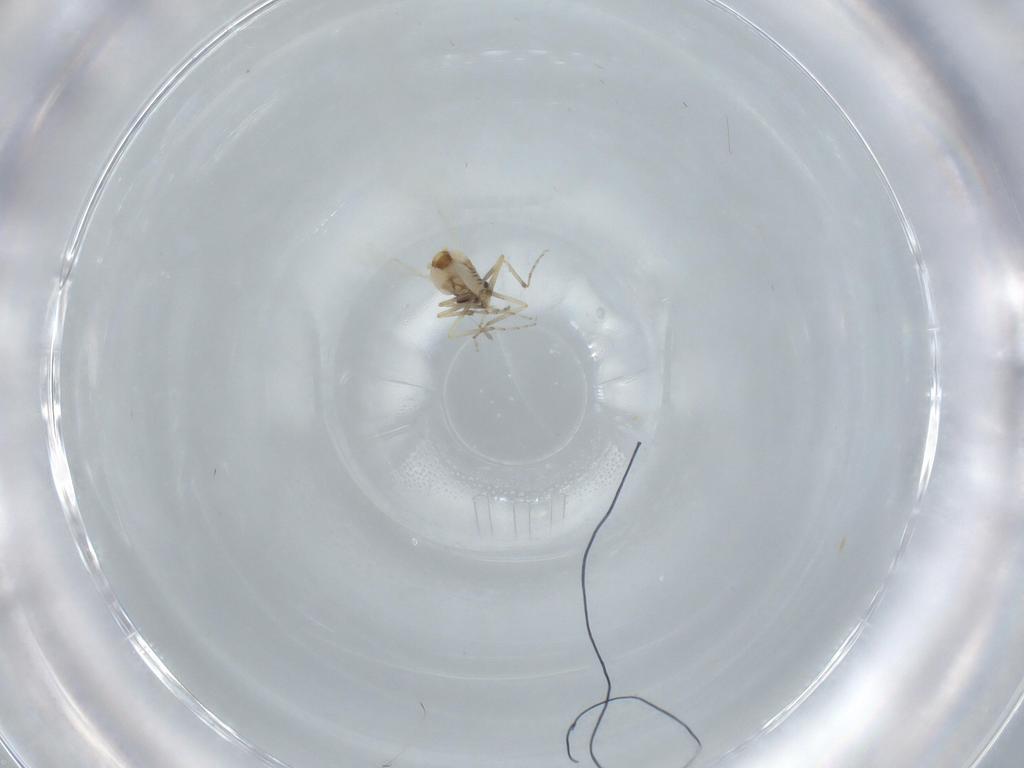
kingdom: Animalia
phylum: Arthropoda
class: Insecta
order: Diptera
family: Ceratopogonidae
